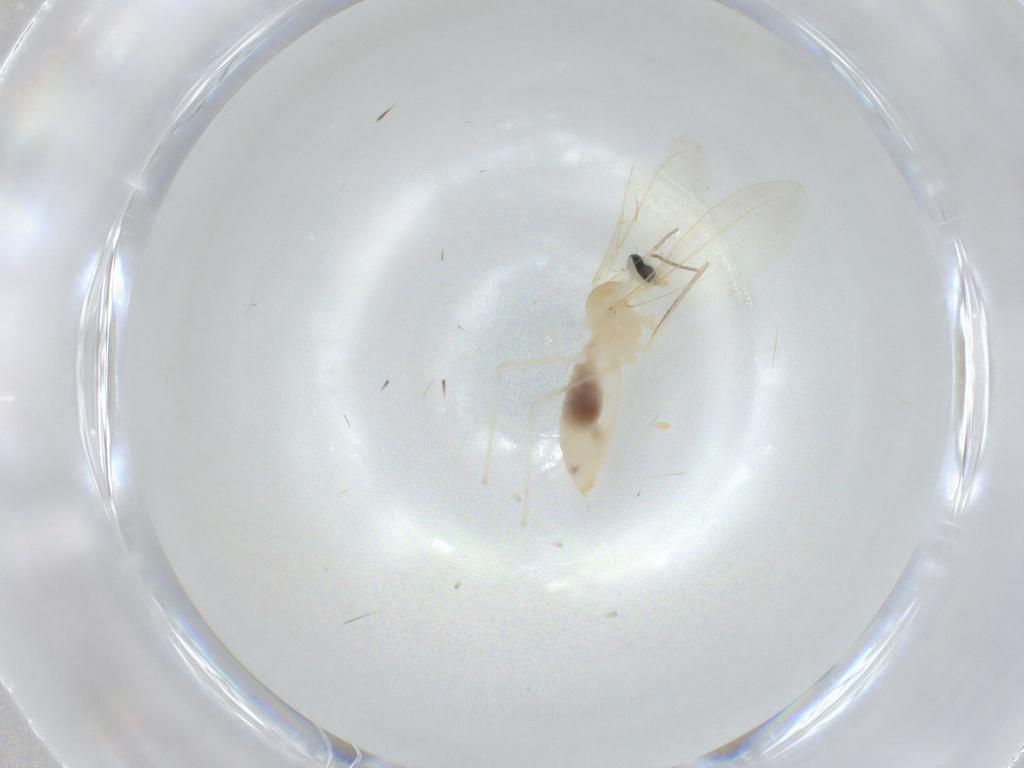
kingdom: Animalia
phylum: Arthropoda
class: Insecta
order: Diptera
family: Cecidomyiidae
